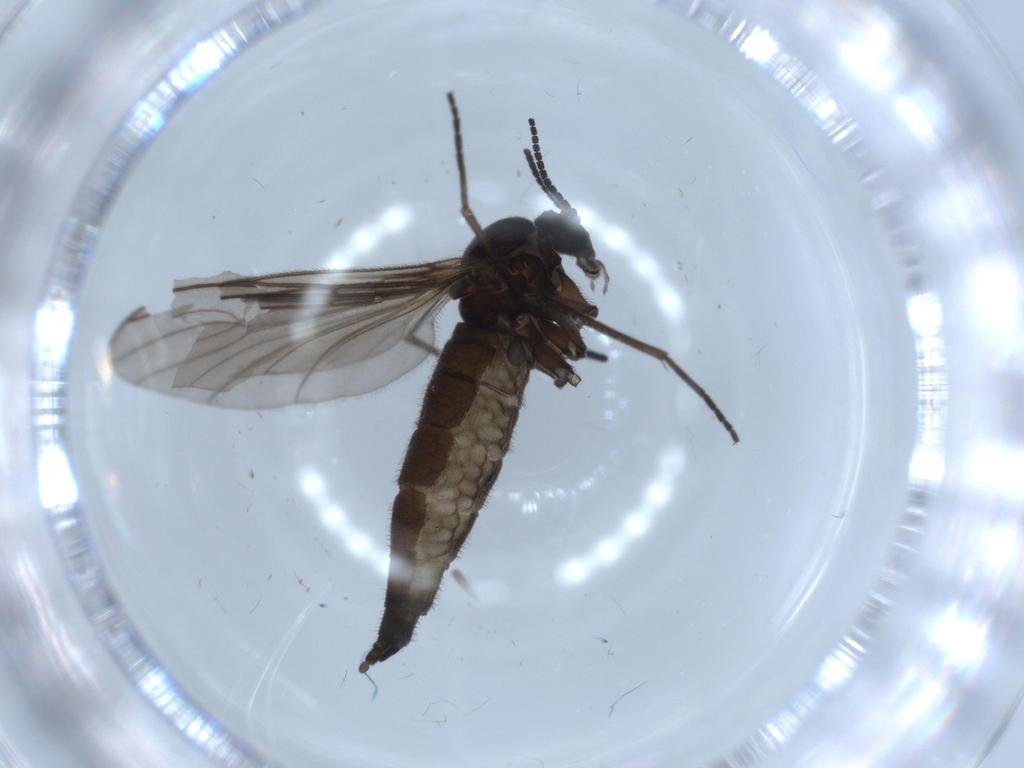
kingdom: Animalia
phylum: Arthropoda
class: Insecta
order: Diptera
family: Sciaridae
